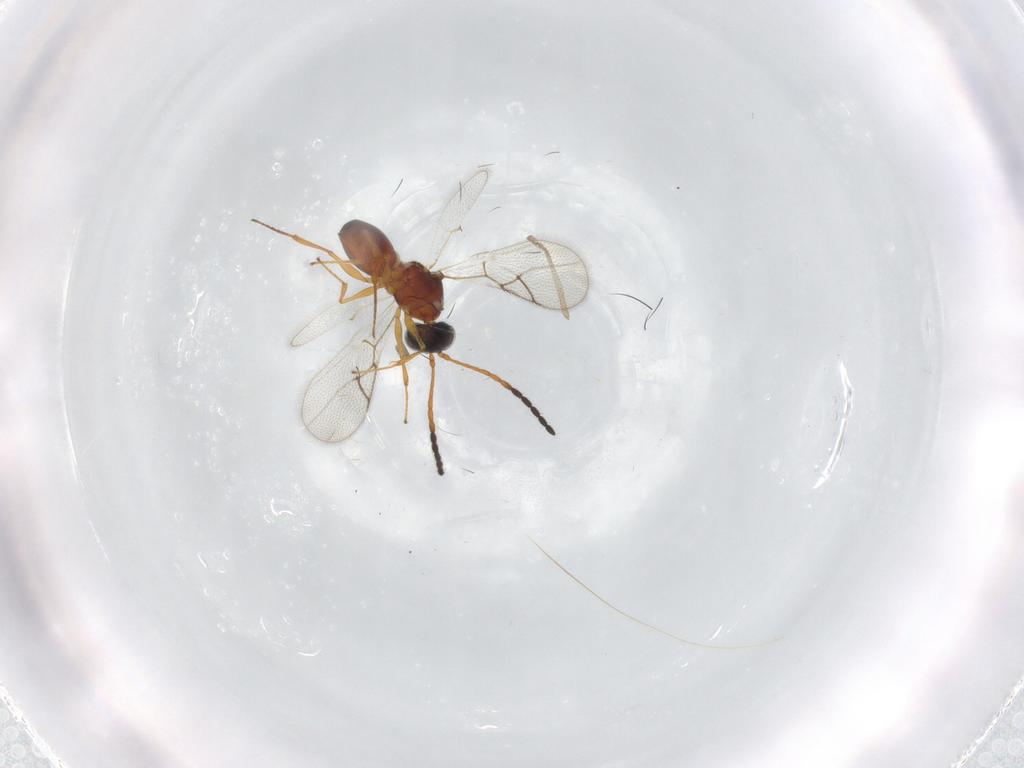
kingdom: Animalia
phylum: Arthropoda
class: Insecta
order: Hymenoptera
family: Figitidae
